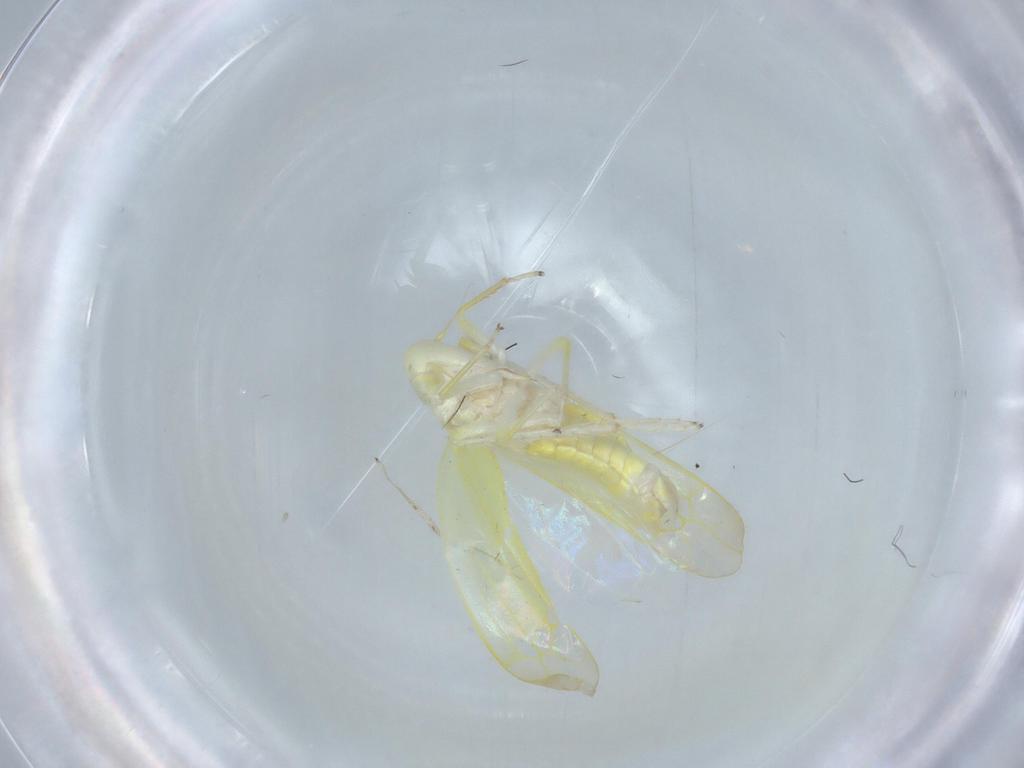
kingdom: Animalia
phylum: Arthropoda
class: Insecta
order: Hemiptera
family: Cicadellidae
